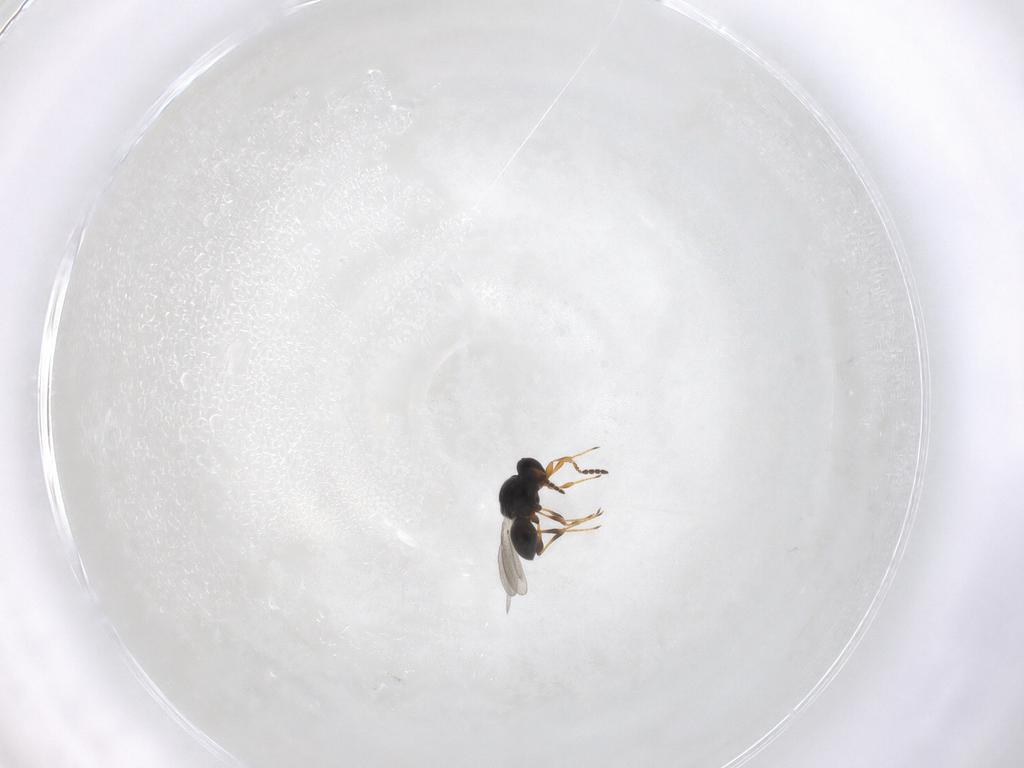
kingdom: Animalia
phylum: Arthropoda
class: Insecta
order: Hymenoptera
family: Platygastridae
